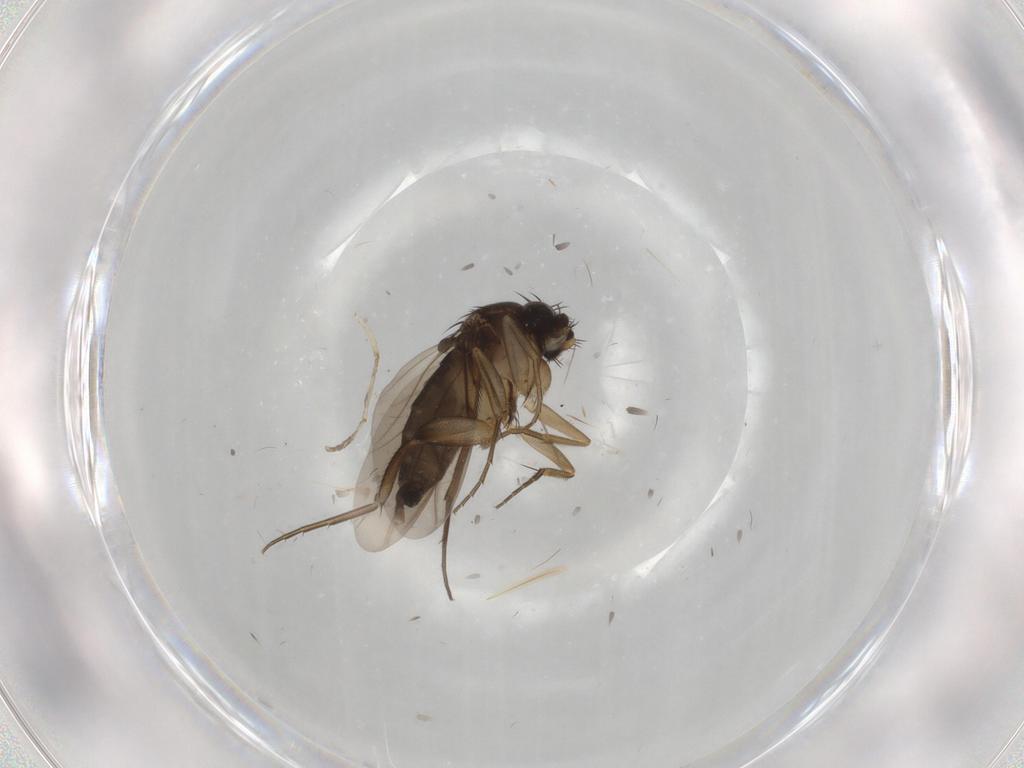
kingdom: Animalia
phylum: Arthropoda
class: Insecta
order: Diptera
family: Phoridae
